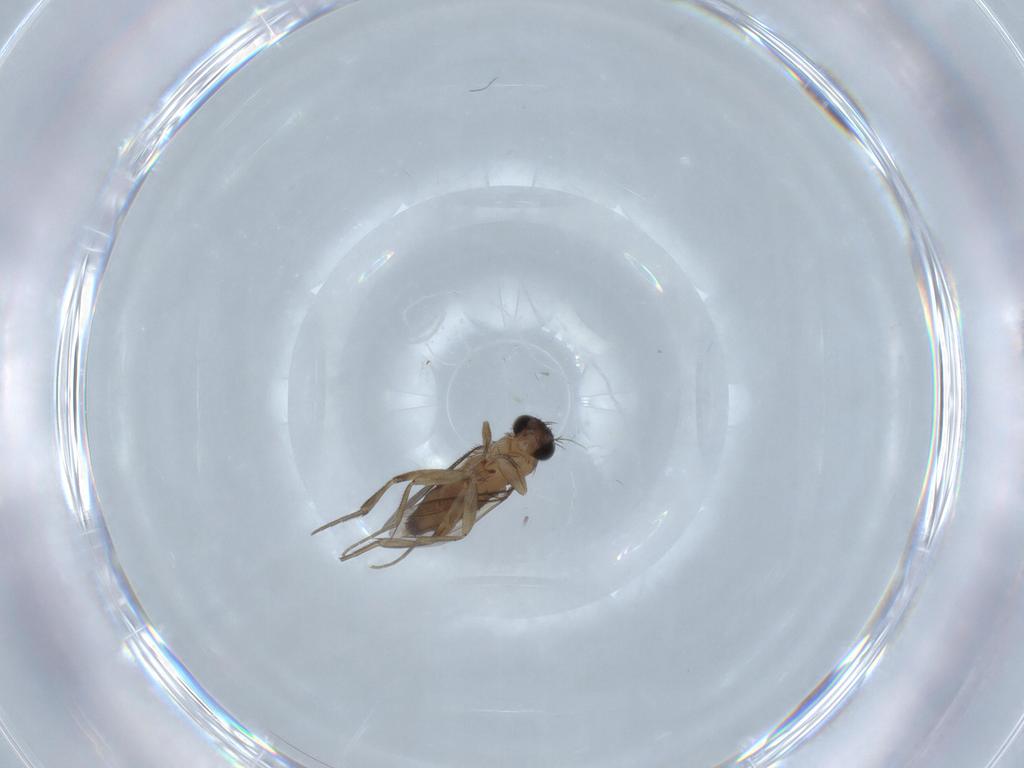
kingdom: Animalia
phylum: Arthropoda
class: Insecta
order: Diptera
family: Phoridae
